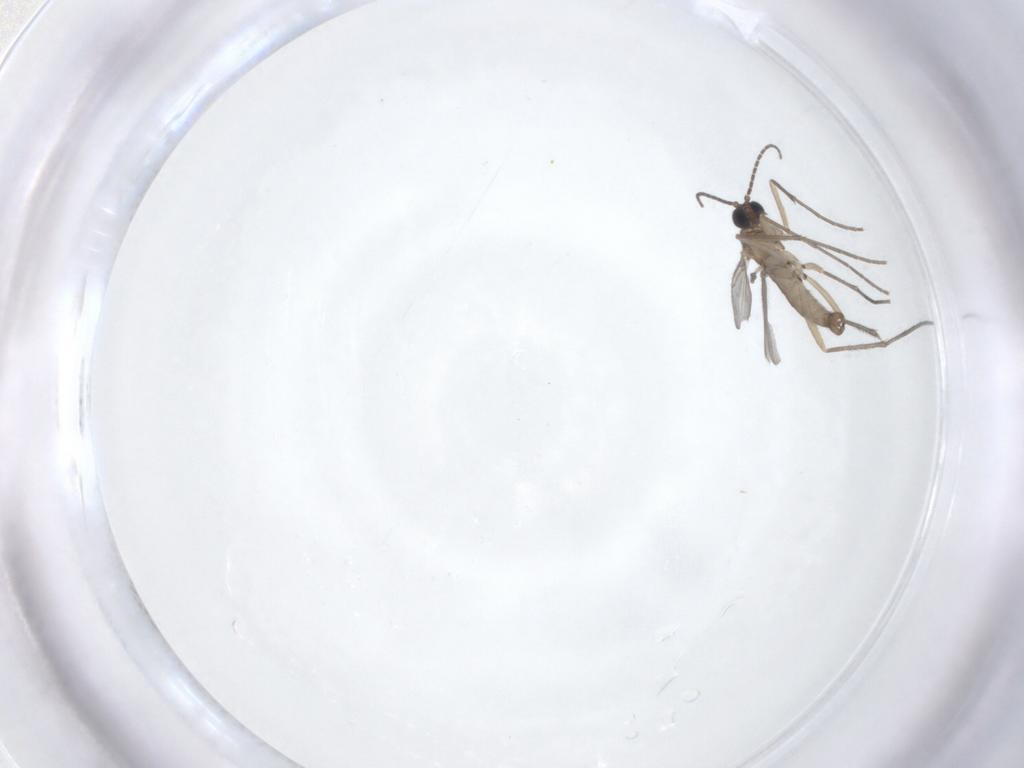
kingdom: Animalia
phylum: Arthropoda
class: Insecta
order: Diptera
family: Sciaridae
